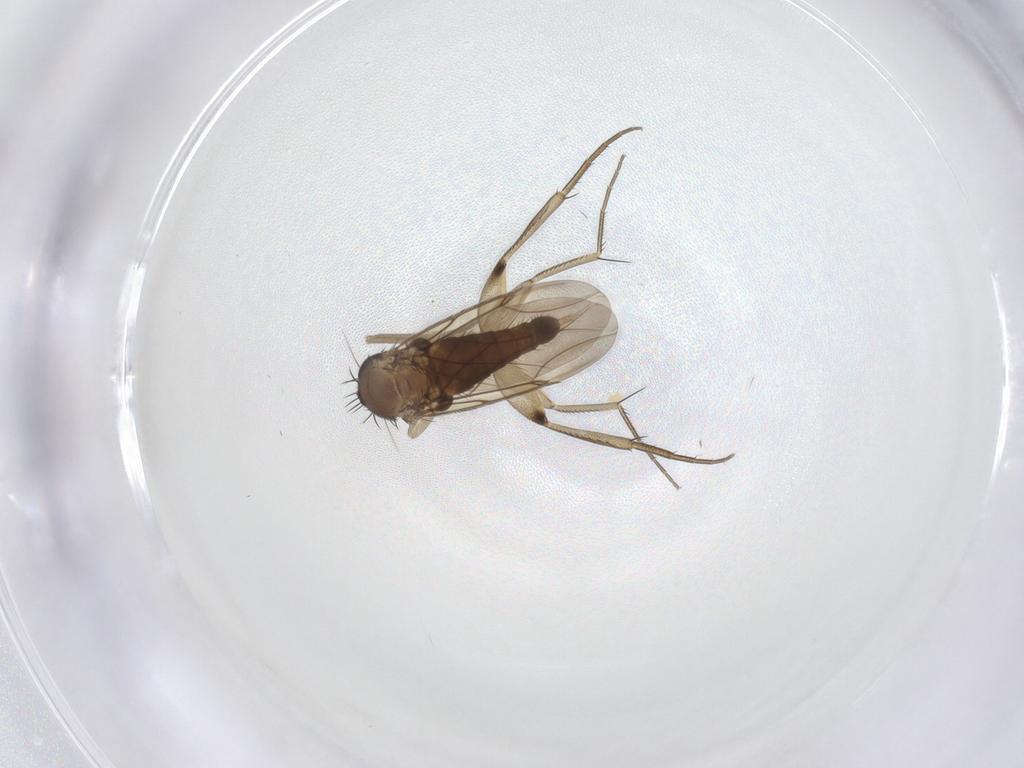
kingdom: Animalia
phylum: Arthropoda
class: Insecta
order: Diptera
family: Phoridae
